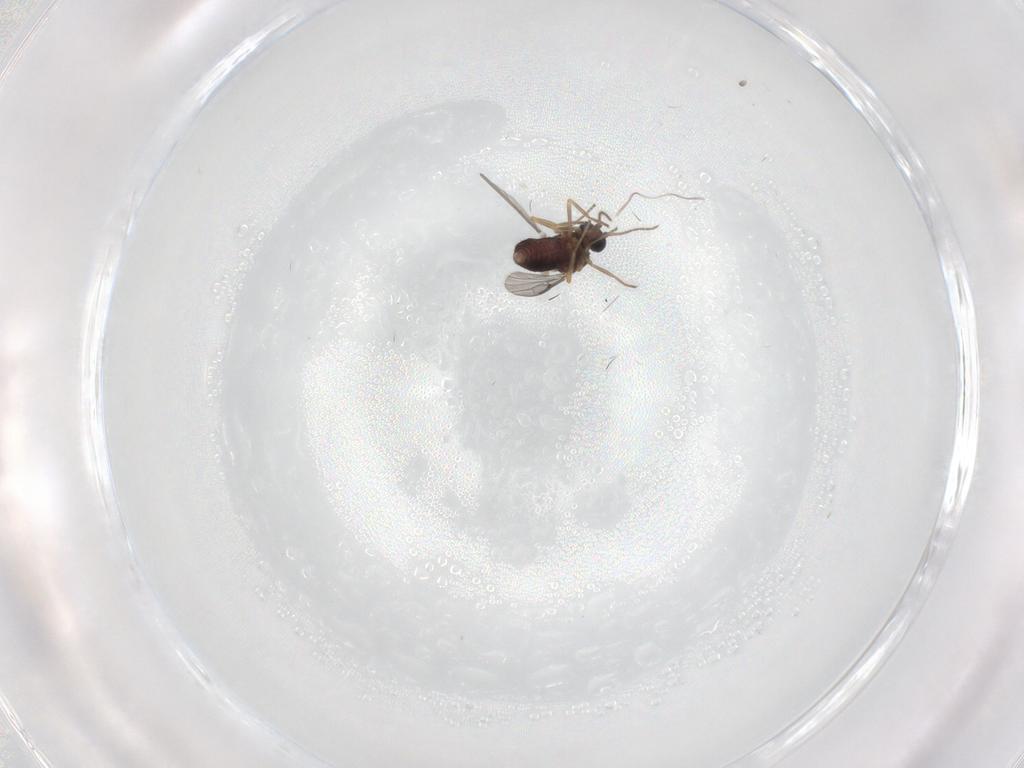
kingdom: Animalia
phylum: Arthropoda
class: Insecta
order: Diptera
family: Ceratopogonidae
